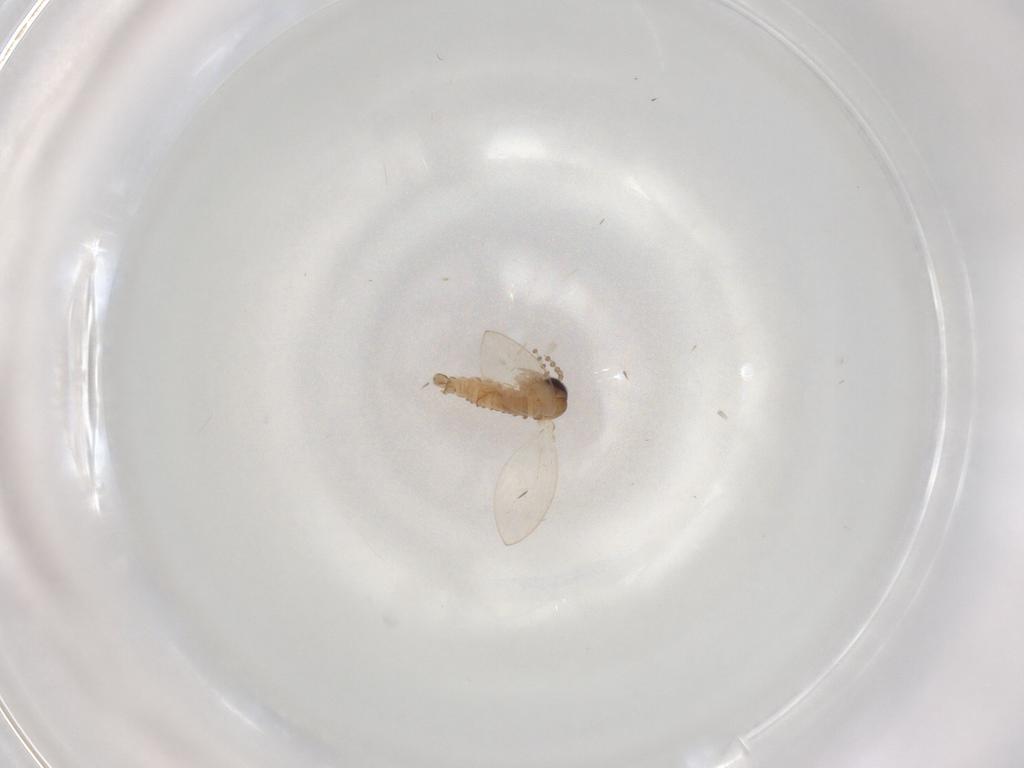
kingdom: Animalia
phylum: Arthropoda
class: Insecta
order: Diptera
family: Psychodidae
